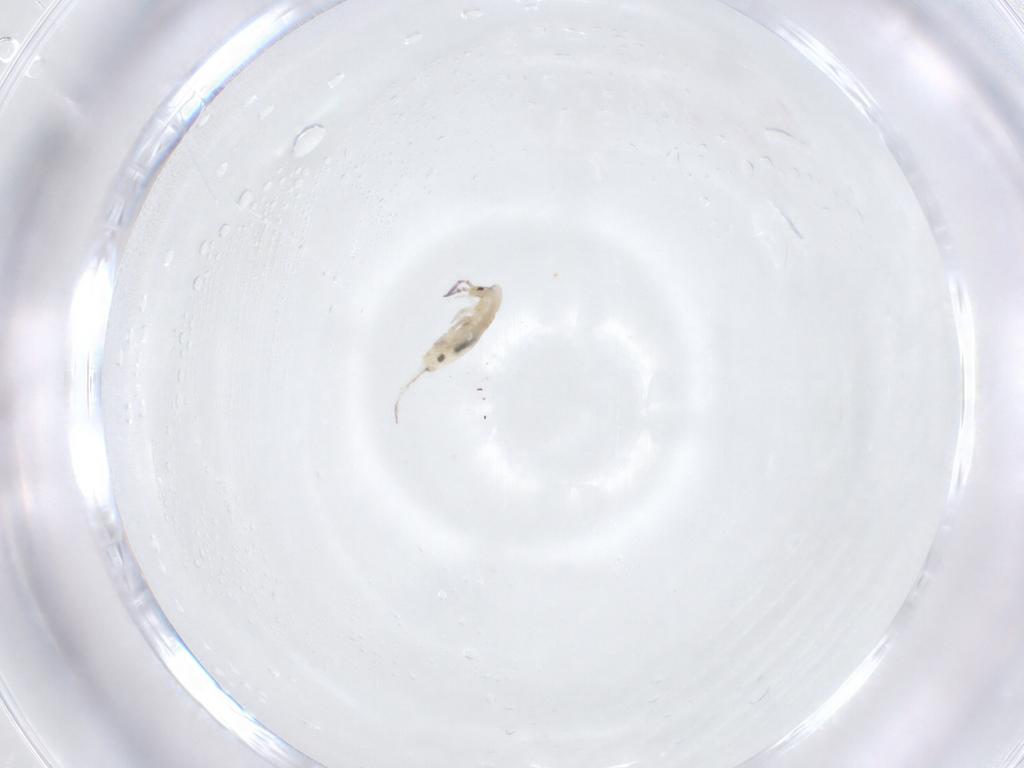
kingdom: Animalia
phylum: Arthropoda
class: Collembola
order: Entomobryomorpha
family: Entomobryidae
